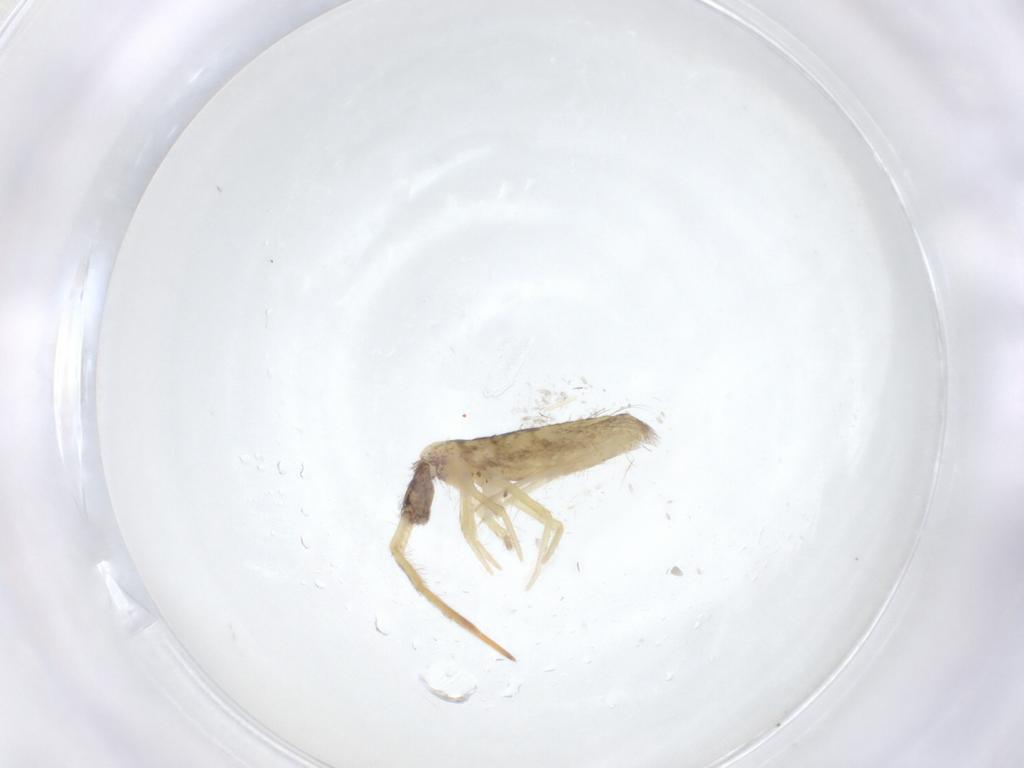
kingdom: Animalia
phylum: Arthropoda
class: Collembola
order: Entomobryomorpha
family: Entomobryidae
